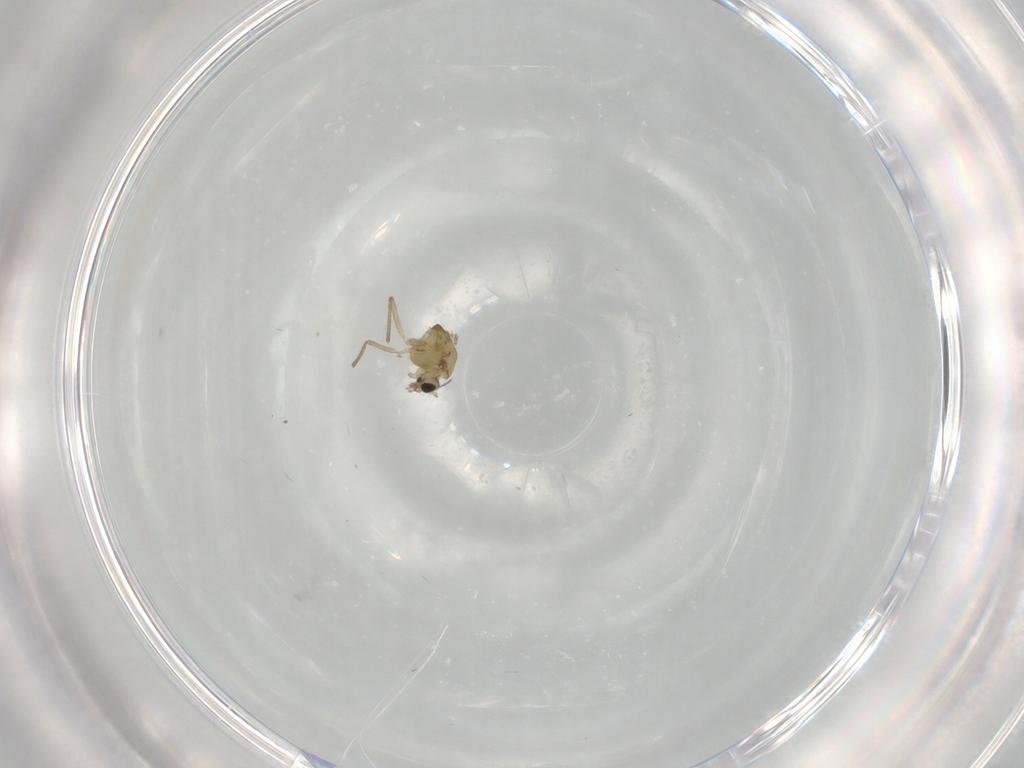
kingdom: Animalia
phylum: Arthropoda
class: Insecta
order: Diptera
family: Chironomidae
